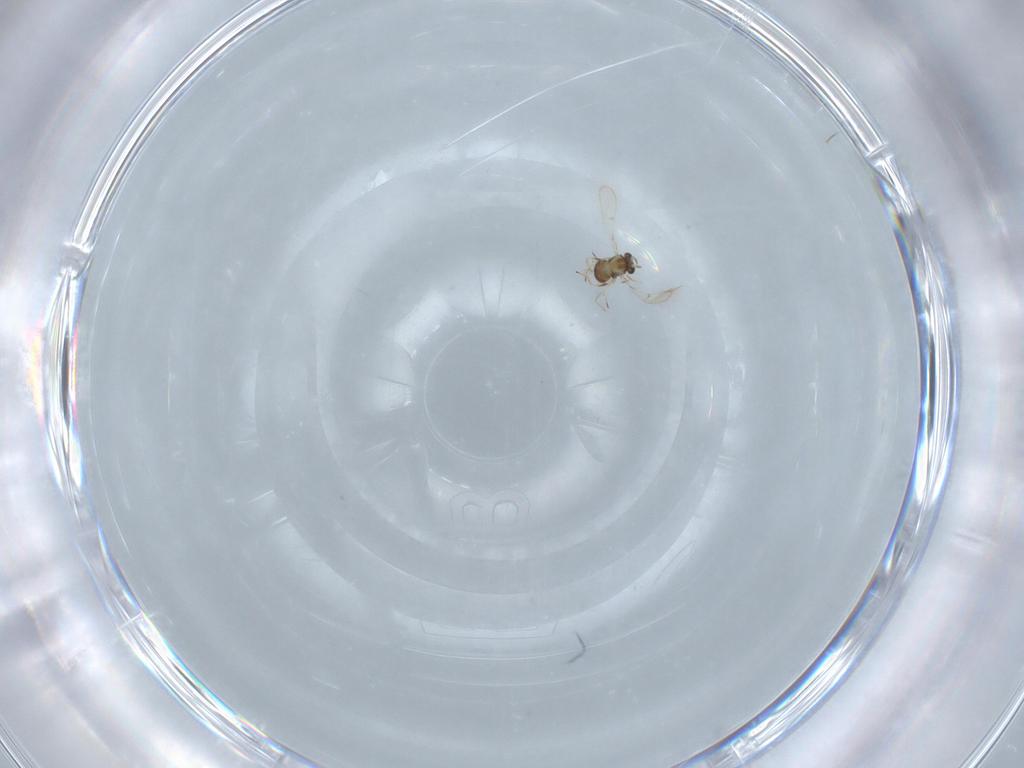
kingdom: Animalia
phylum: Arthropoda
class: Insecta
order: Hymenoptera
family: Trichogrammatidae
